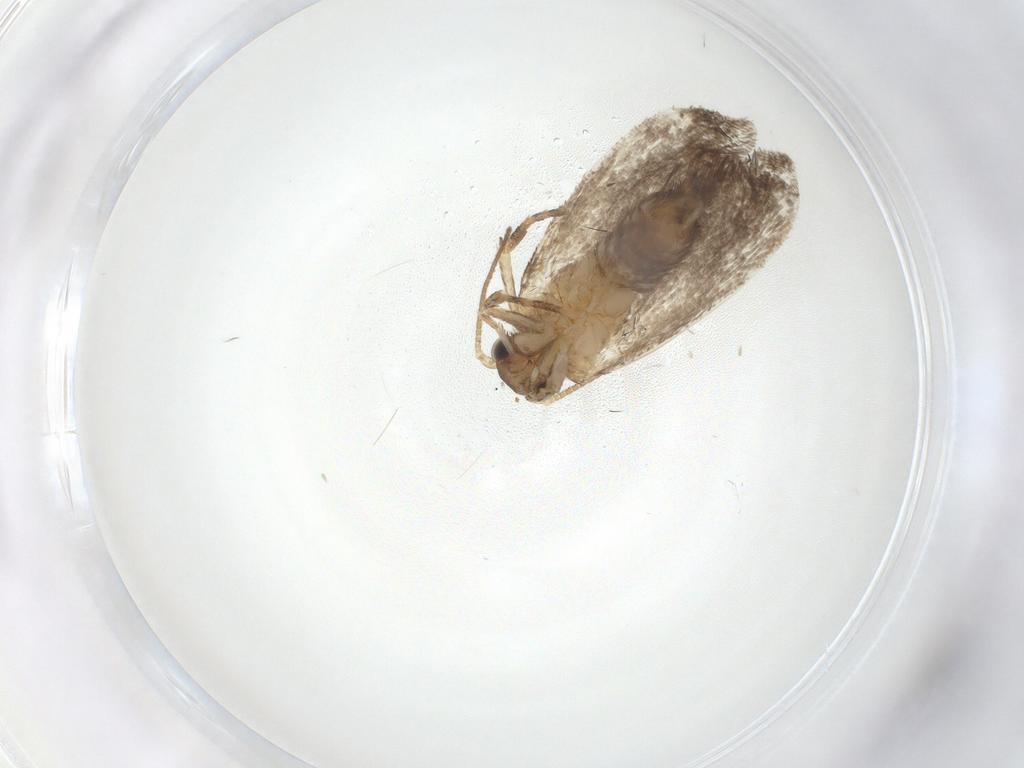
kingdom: Animalia
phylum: Arthropoda
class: Insecta
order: Lepidoptera
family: Dryadaulidae
